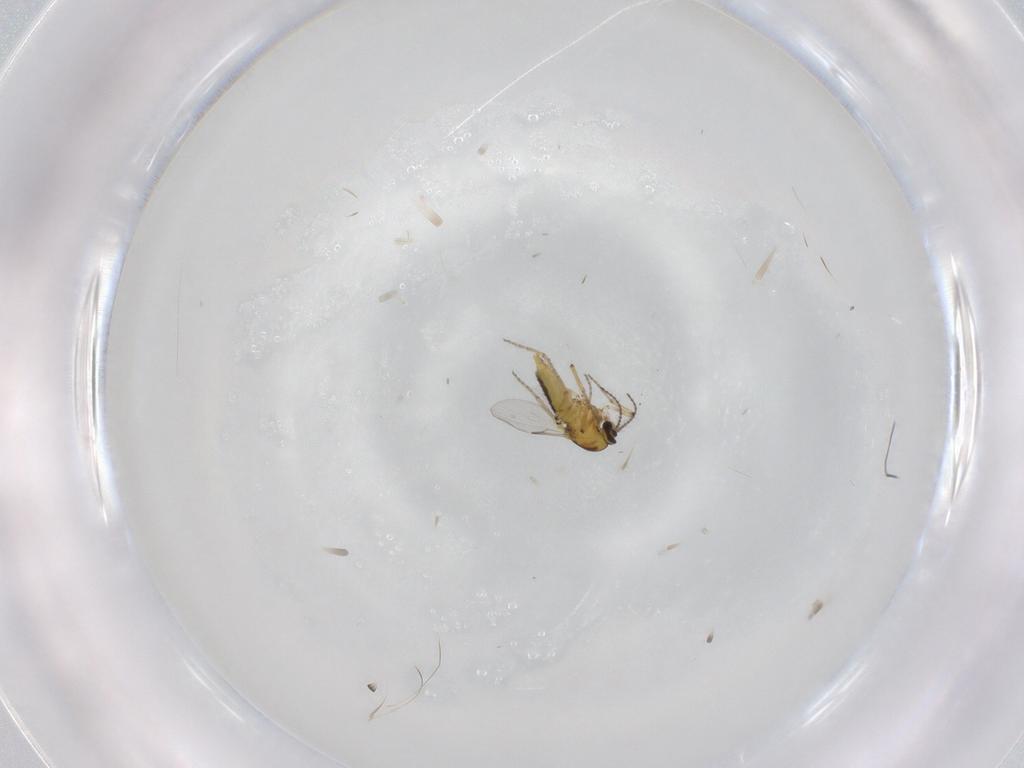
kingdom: Animalia
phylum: Arthropoda
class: Insecta
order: Diptera
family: Ceratopogonidae
